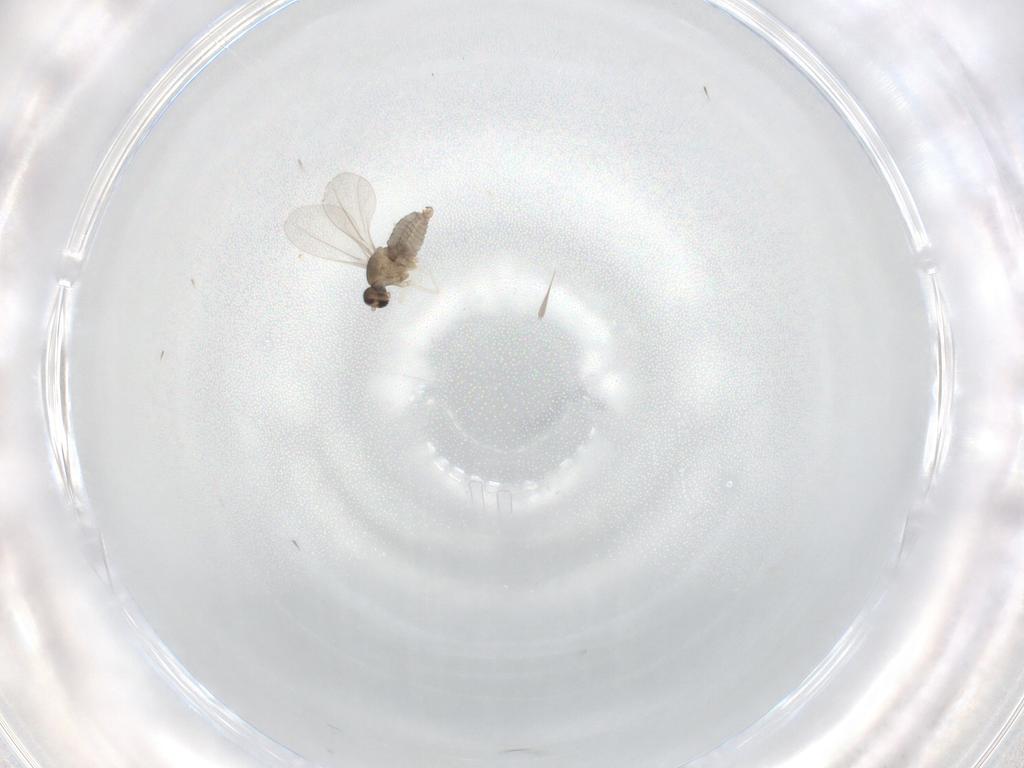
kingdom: Animalia
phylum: Arthropoda
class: Insecta
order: Diptera
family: Cecidomyiidae
